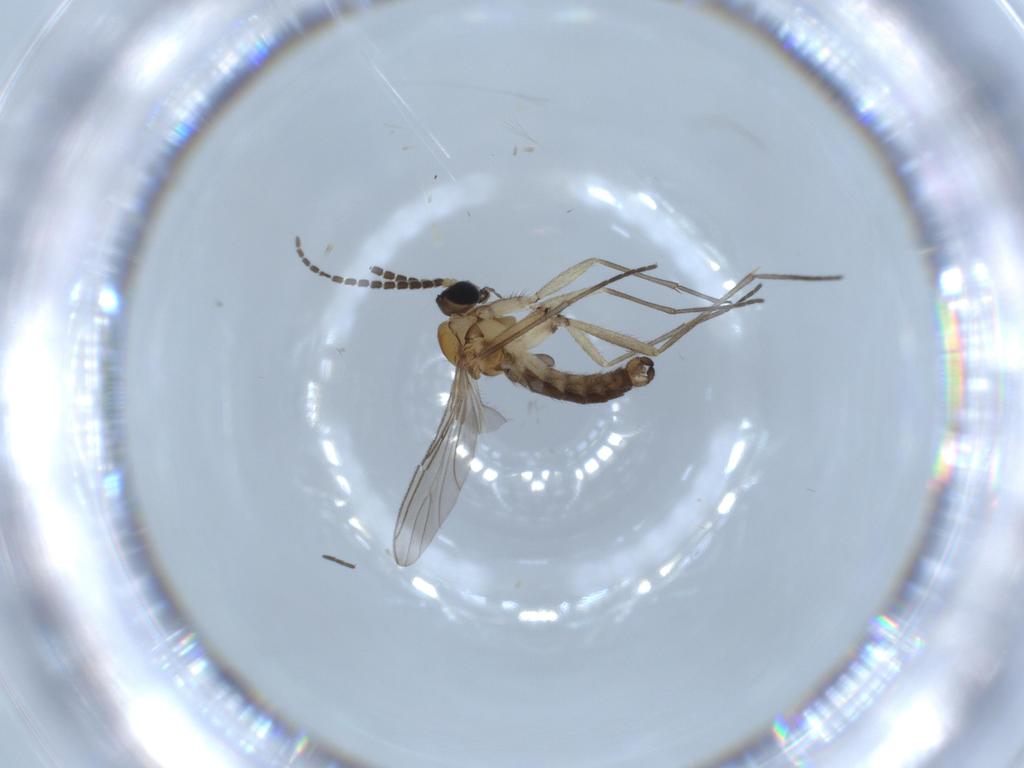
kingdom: Animalia
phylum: Arthropoda
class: Insecta
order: Diptera
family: Sciaridae
